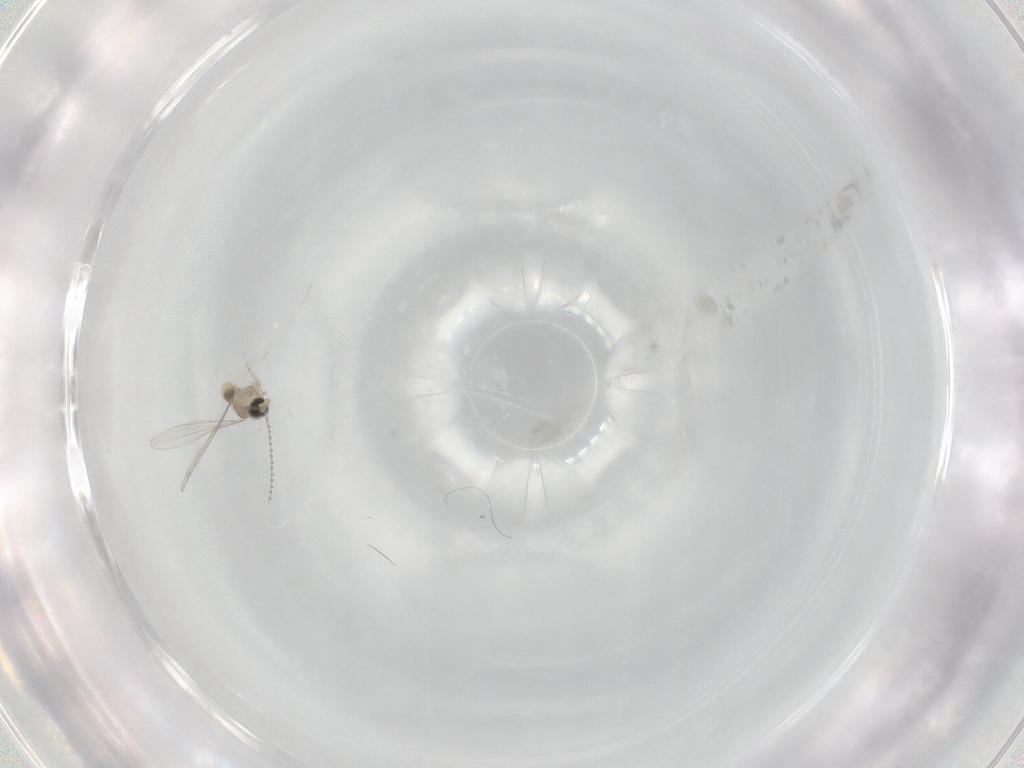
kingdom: Animalia
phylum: Arthropoda
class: Insecta
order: Diptera
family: Cecidomyiidae
